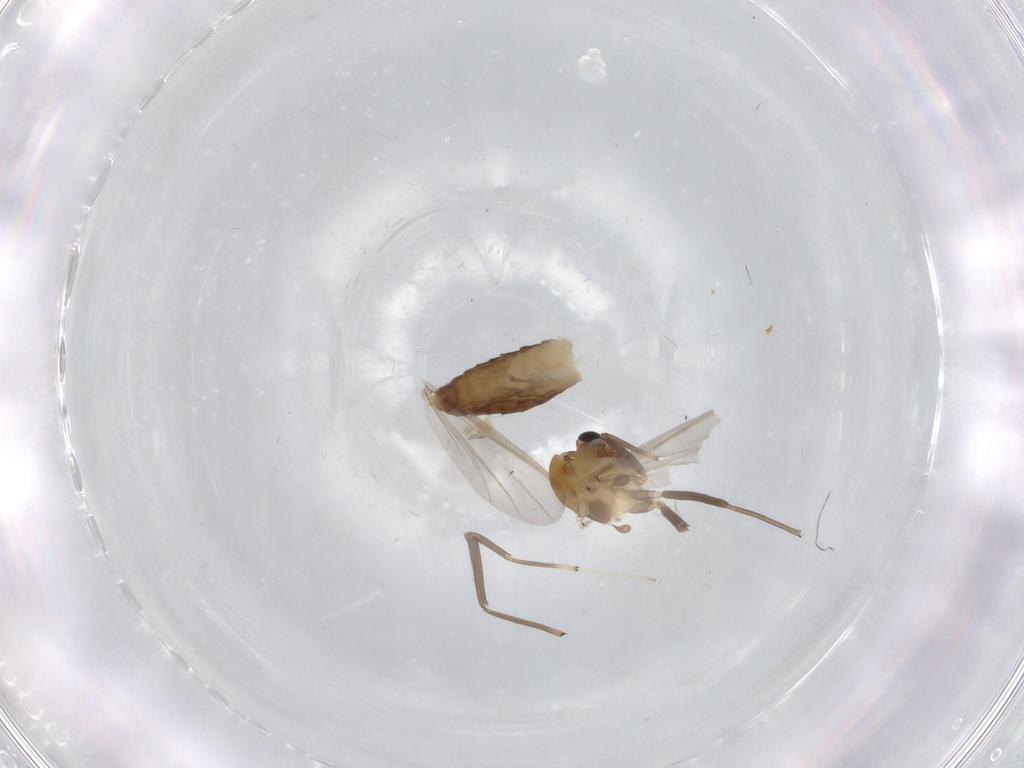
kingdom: Animalia
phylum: Arthropoda
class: Insecta
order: Diptera
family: Chironomidae
